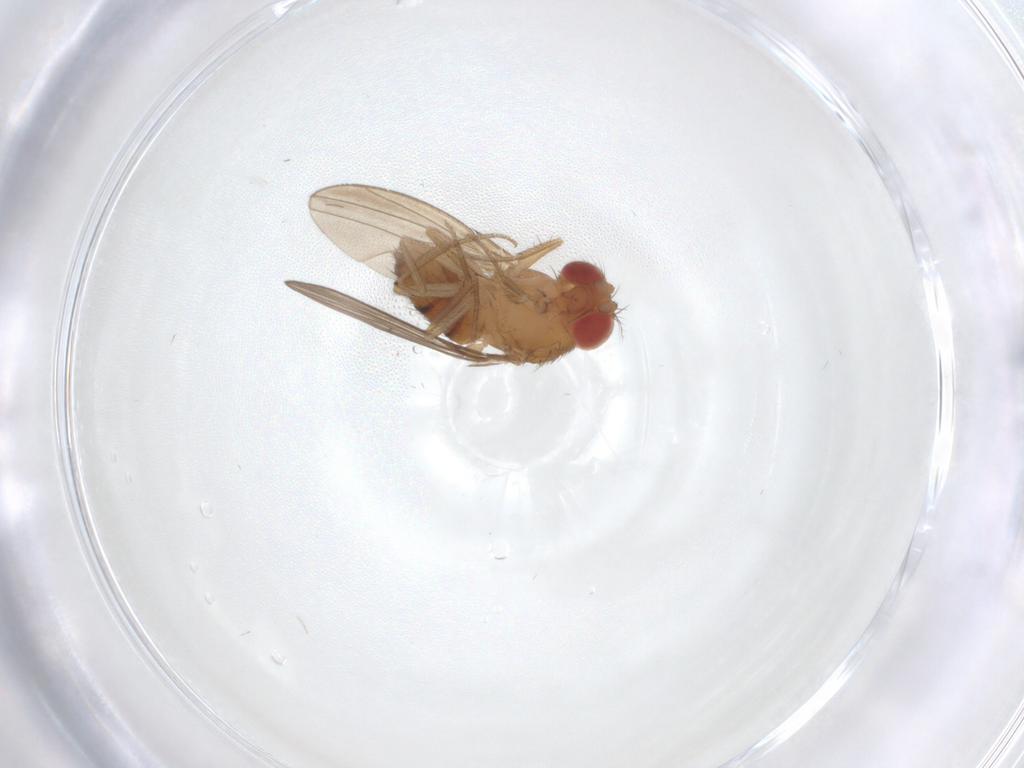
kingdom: Animalia
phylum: Arthropoda
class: Insecta
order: Diptera
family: Drosophilidae
